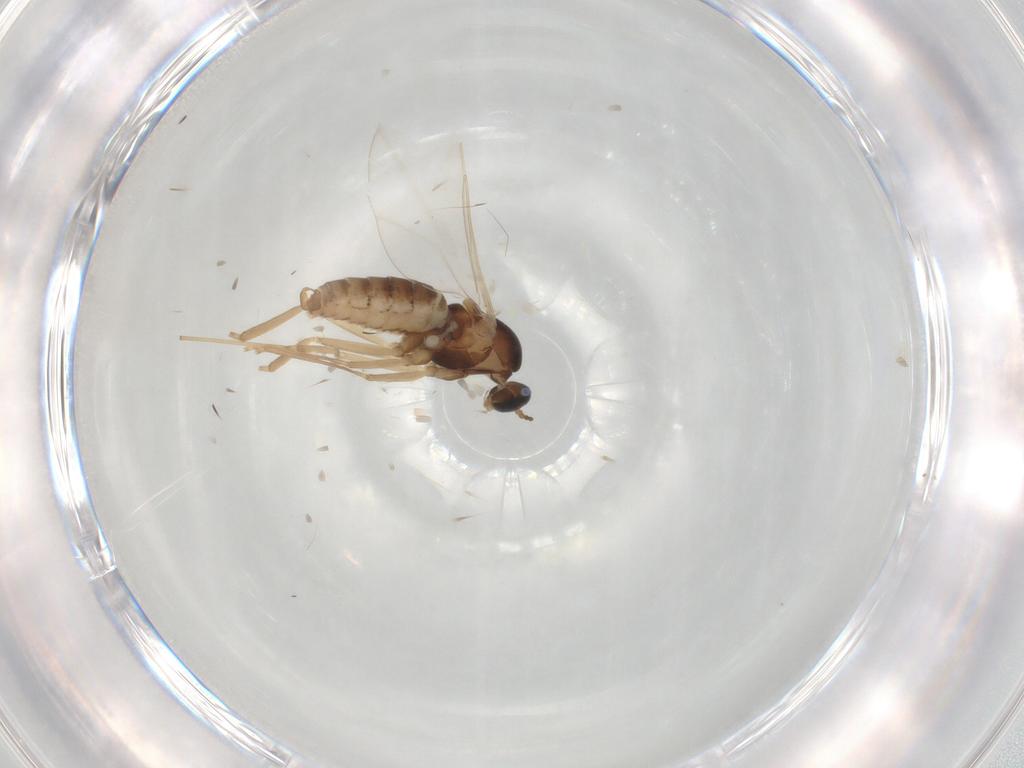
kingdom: Animalia
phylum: Arthropoda
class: Insecta
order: Diptera
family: Cecidomyiidae
